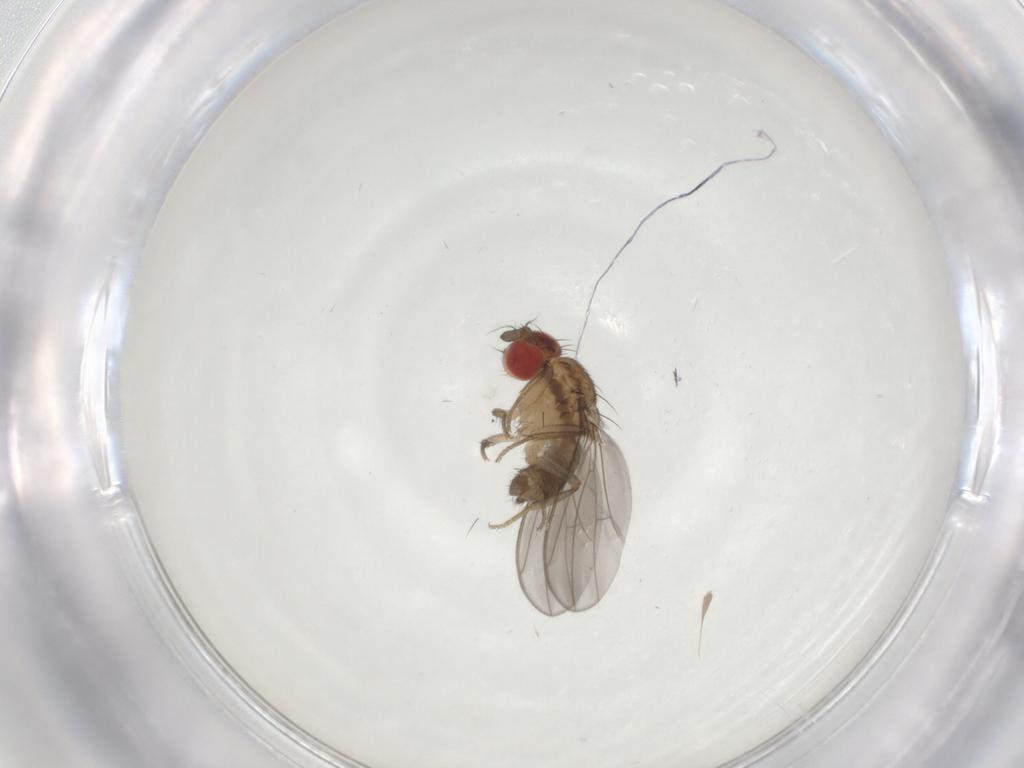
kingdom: Animalia
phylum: Arthropoda
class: Insecta
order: Diptera
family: Drosophilidae
